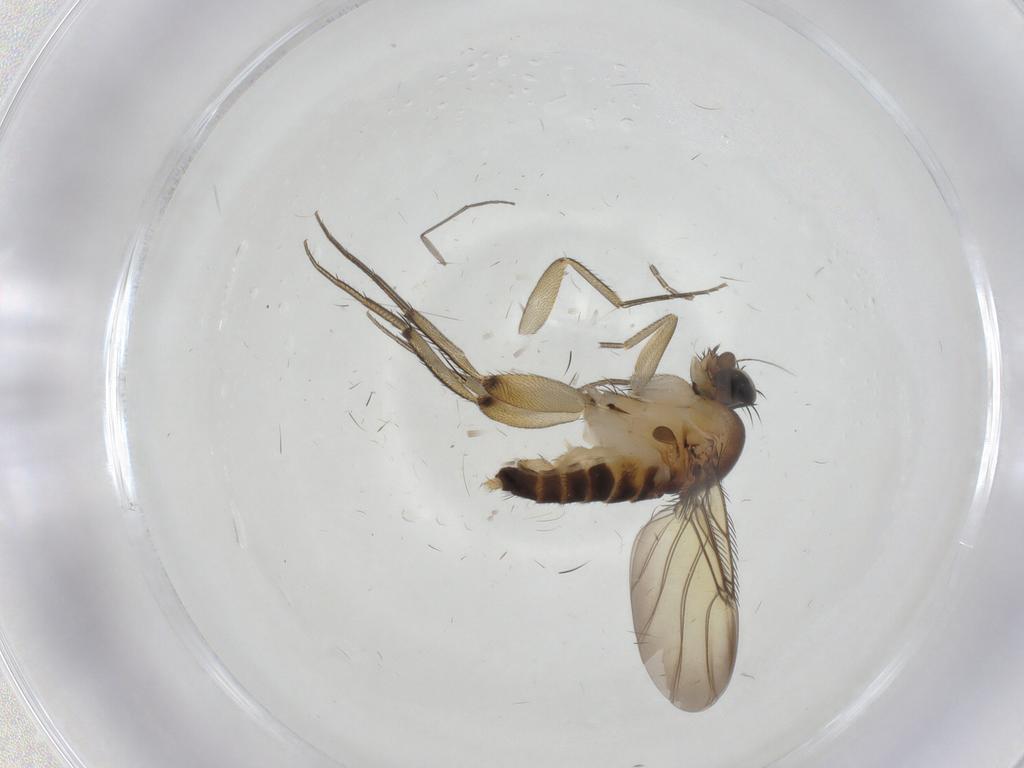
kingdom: Animalia
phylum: Arthropoda
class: Insecta
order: Diptera
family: Phoridae
